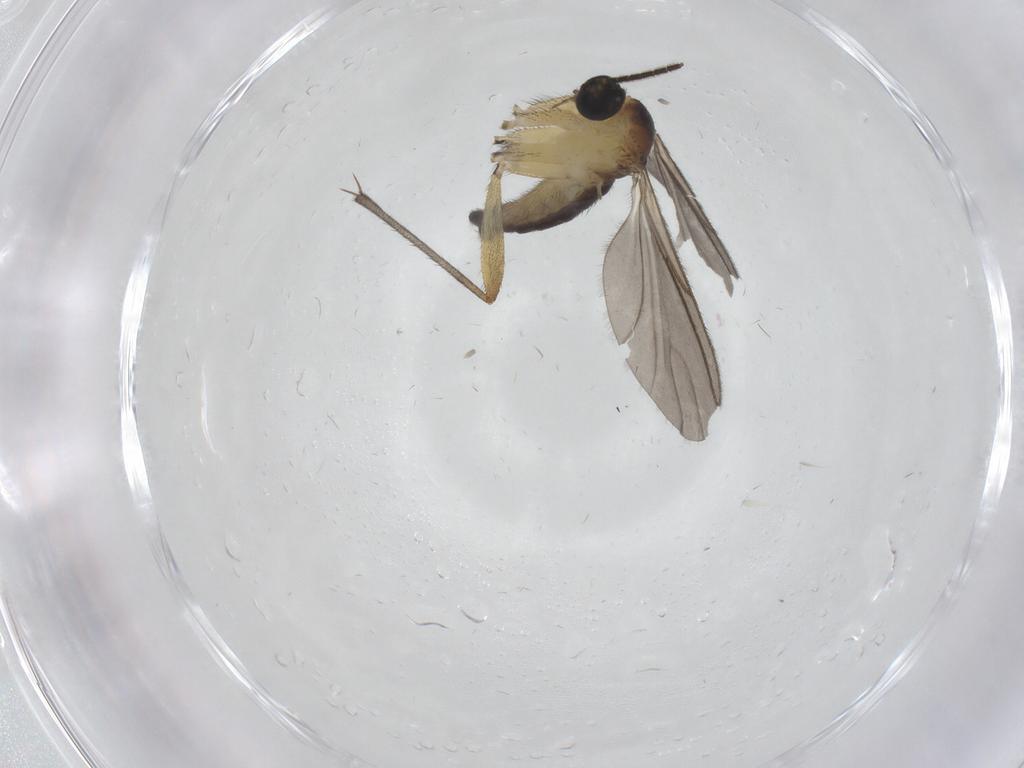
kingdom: Animalia
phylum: Arthropoda
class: Insecta
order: Diptera
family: Sciaridae
